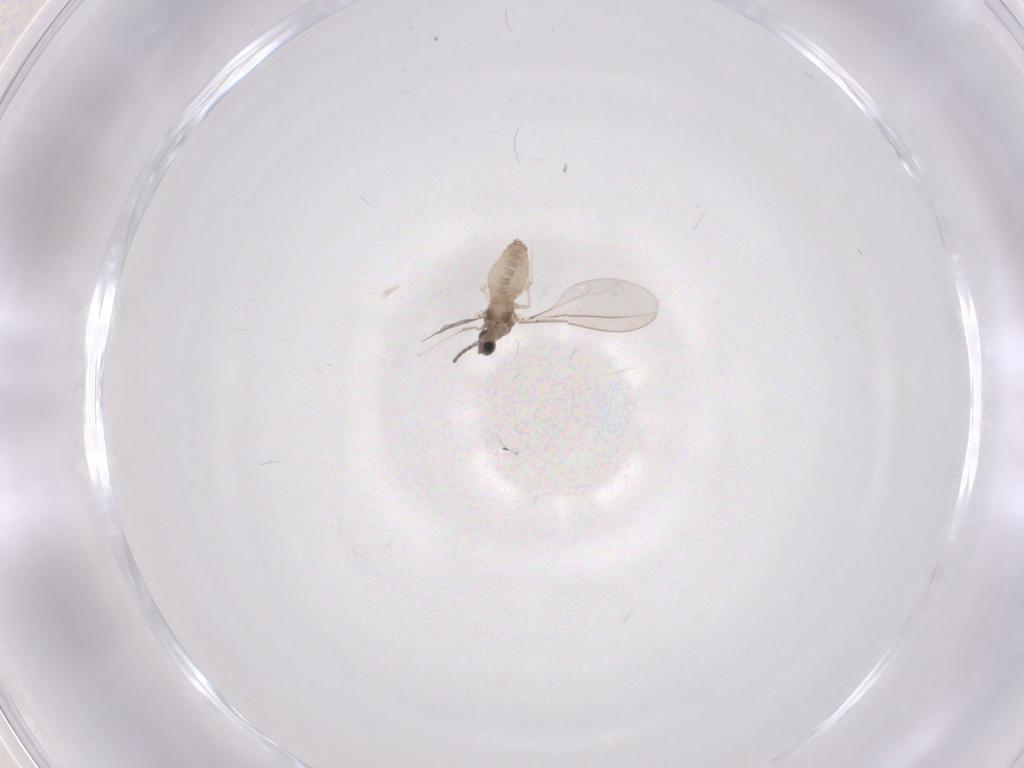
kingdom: Animalia
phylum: Arthropoda
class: Insecta
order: Diptera
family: Cecidomyiidae
